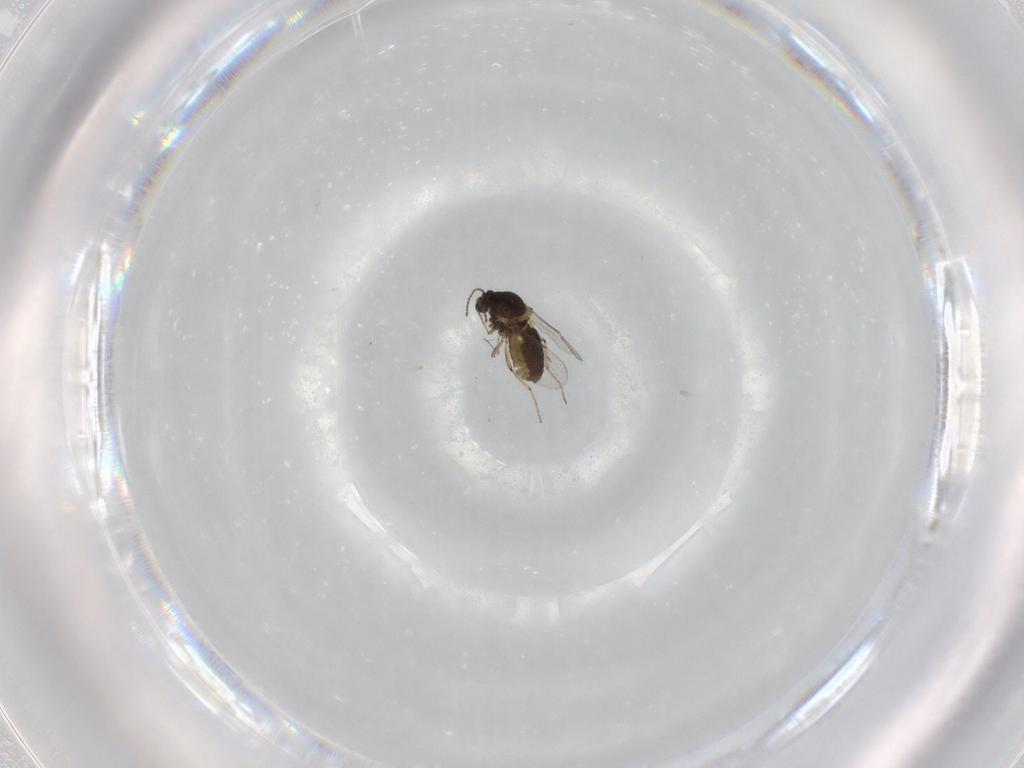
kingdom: Animalia
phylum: Arthropoda
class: Insecta
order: Diptera
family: Ceratopogonidae
